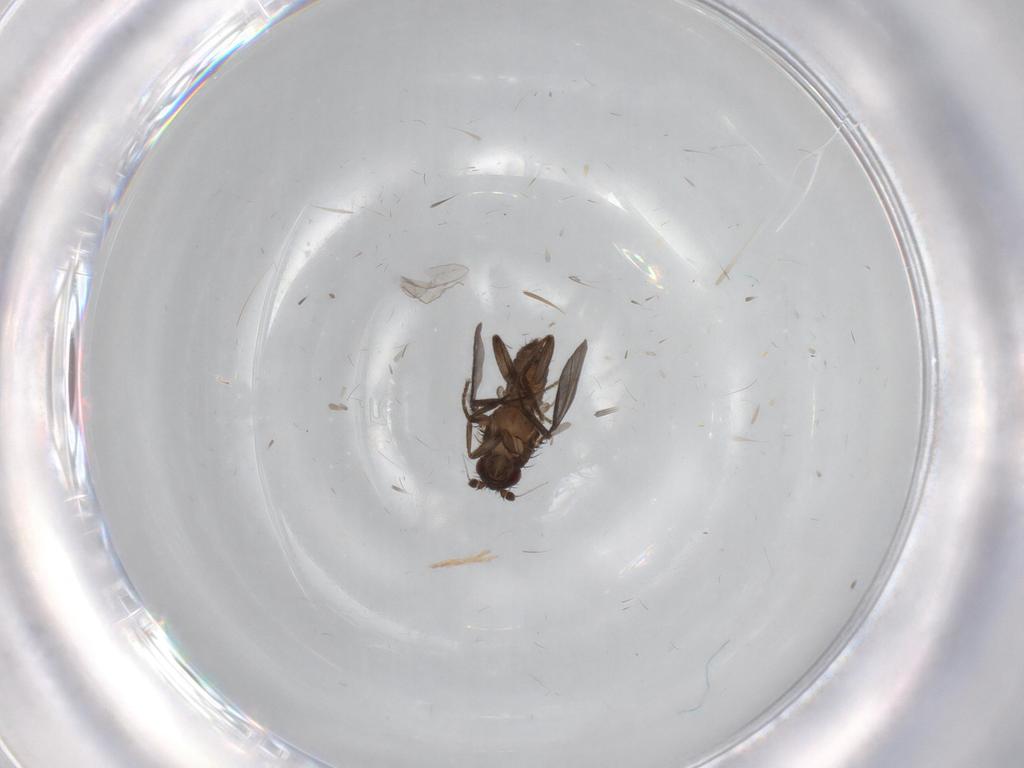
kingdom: Animalia
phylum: Arthropoda
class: Insecta
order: Diptera
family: Sphaeroceridae
